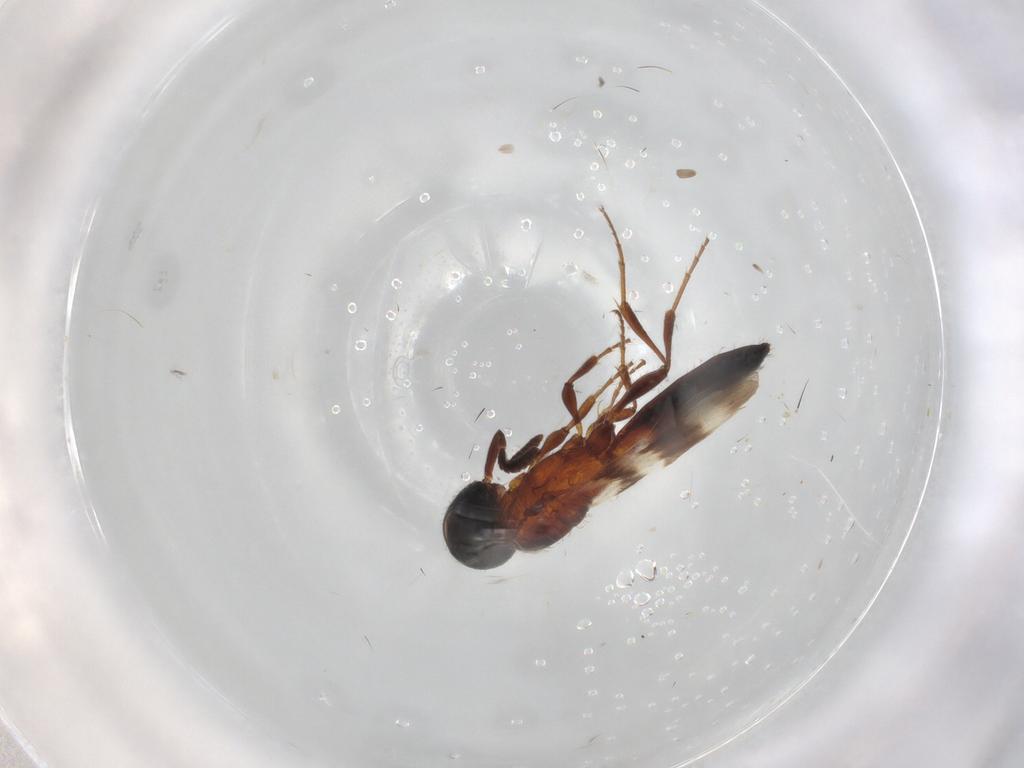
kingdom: Animalia
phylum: Arthropoda
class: Insecta
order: Hymenoptera
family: Scelionidae
